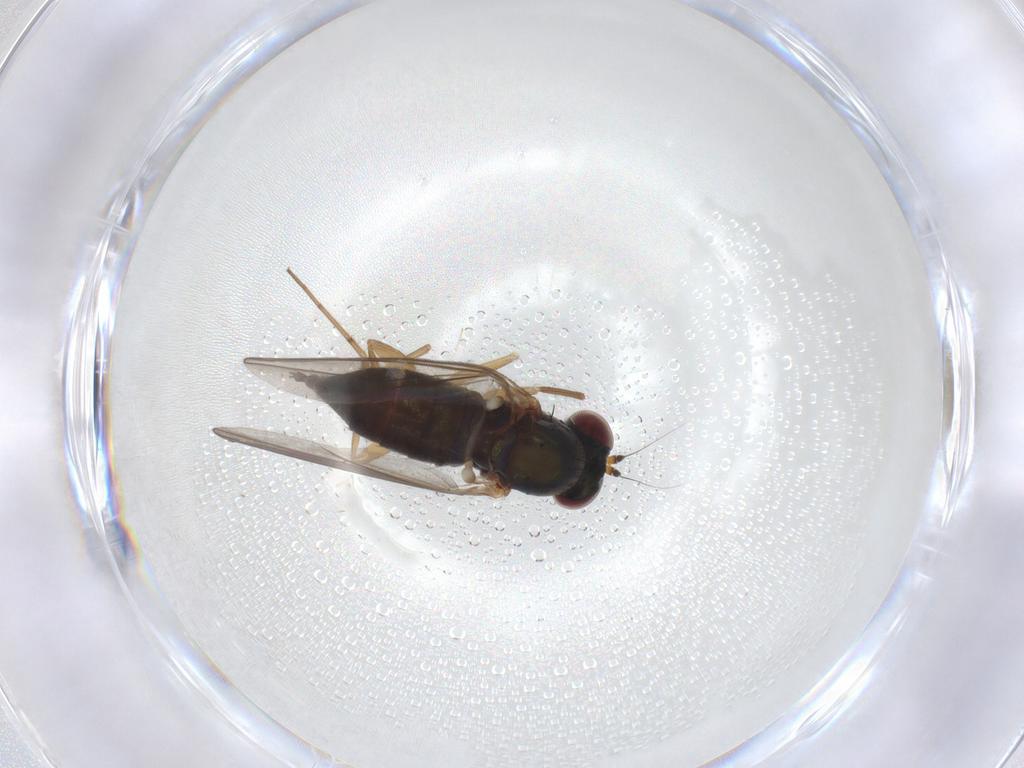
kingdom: Animalia
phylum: Arthropoda
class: Insecta
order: Diptera
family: Dolichopodidae
